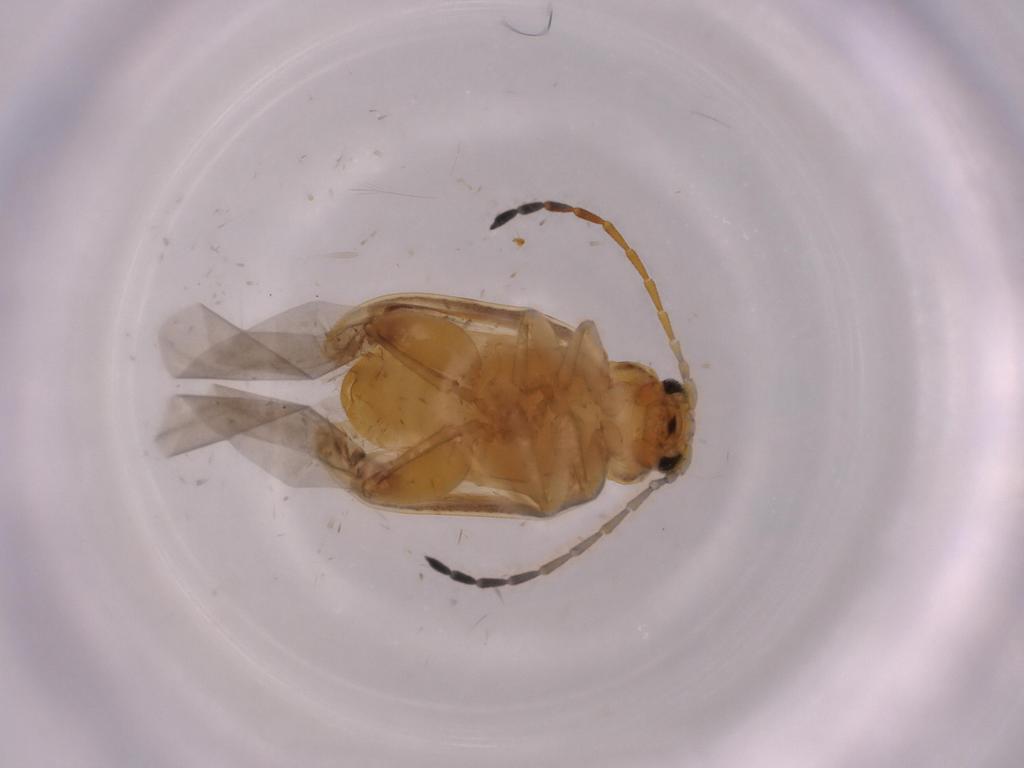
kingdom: Animalia
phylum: Arthropoda
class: Insecta
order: Coleoptera
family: Chrysomelidae
